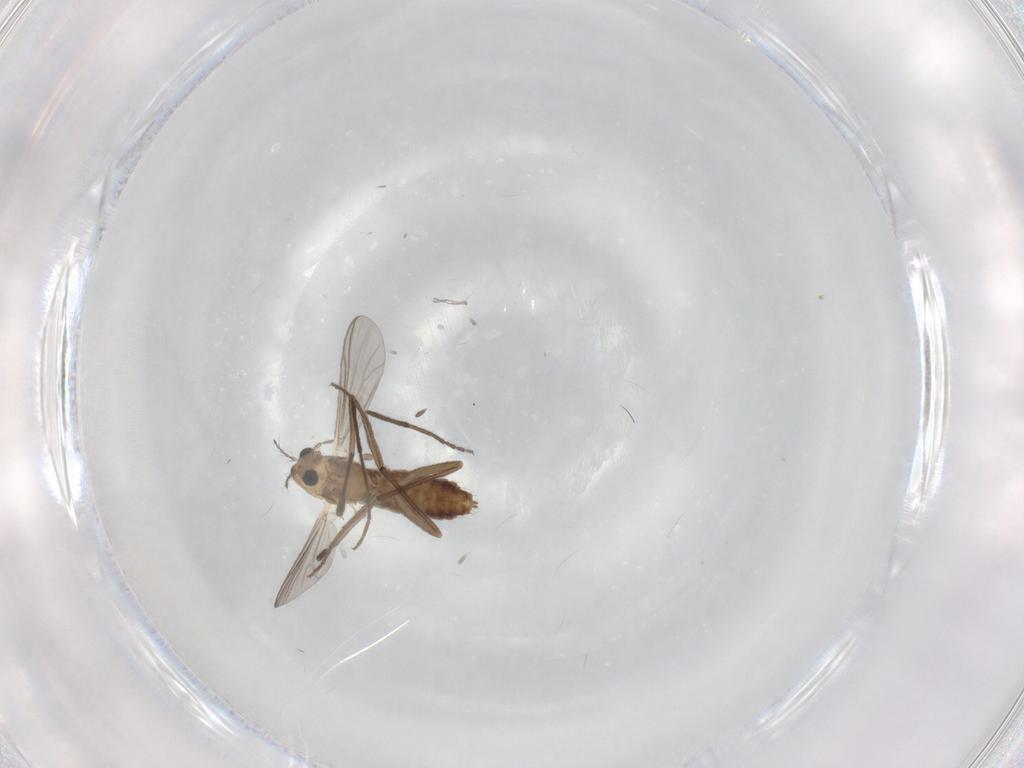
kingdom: Animalia
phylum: Arthropoda
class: Insecta
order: Diptera
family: Chironomidae
